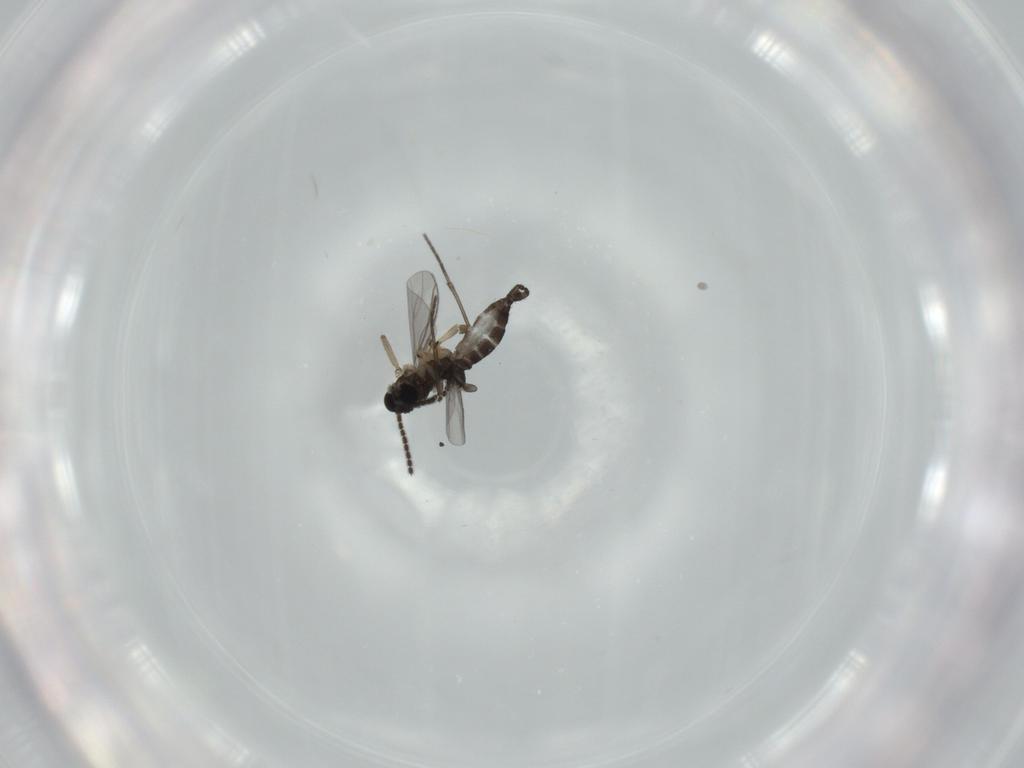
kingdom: Animalia
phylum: Arthropoda
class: Insecta
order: Diptera
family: Sciaridae
